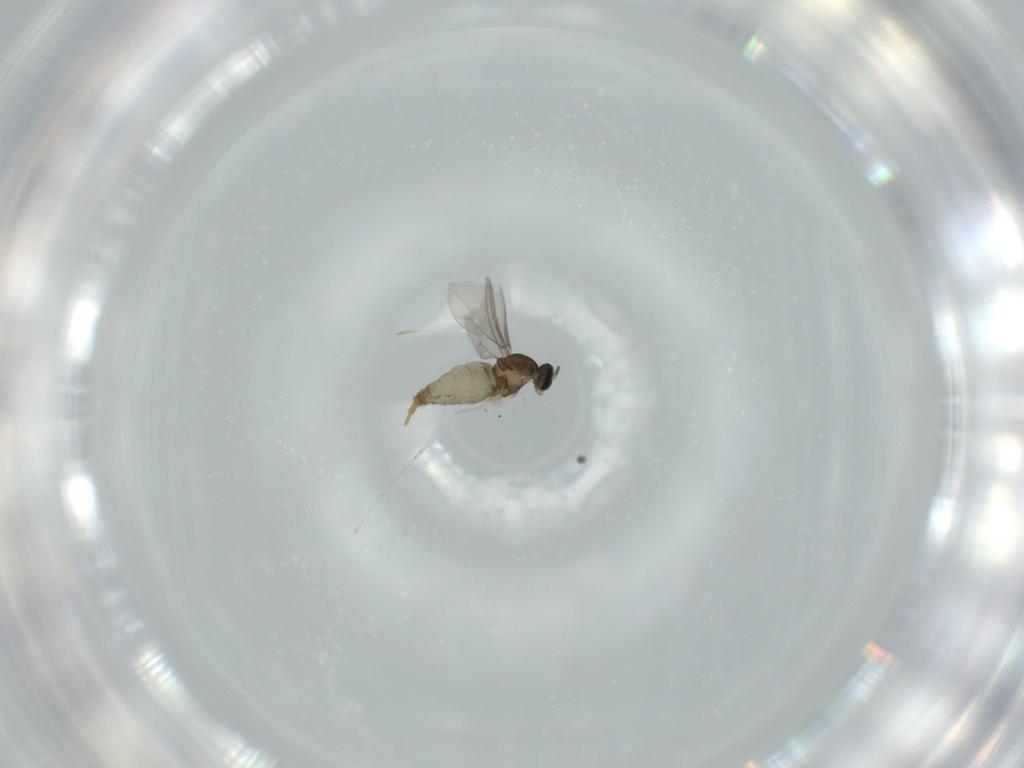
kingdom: Animalia
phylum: Arthropoda
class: Insecta
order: Diptera
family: Cecidomyiidae
